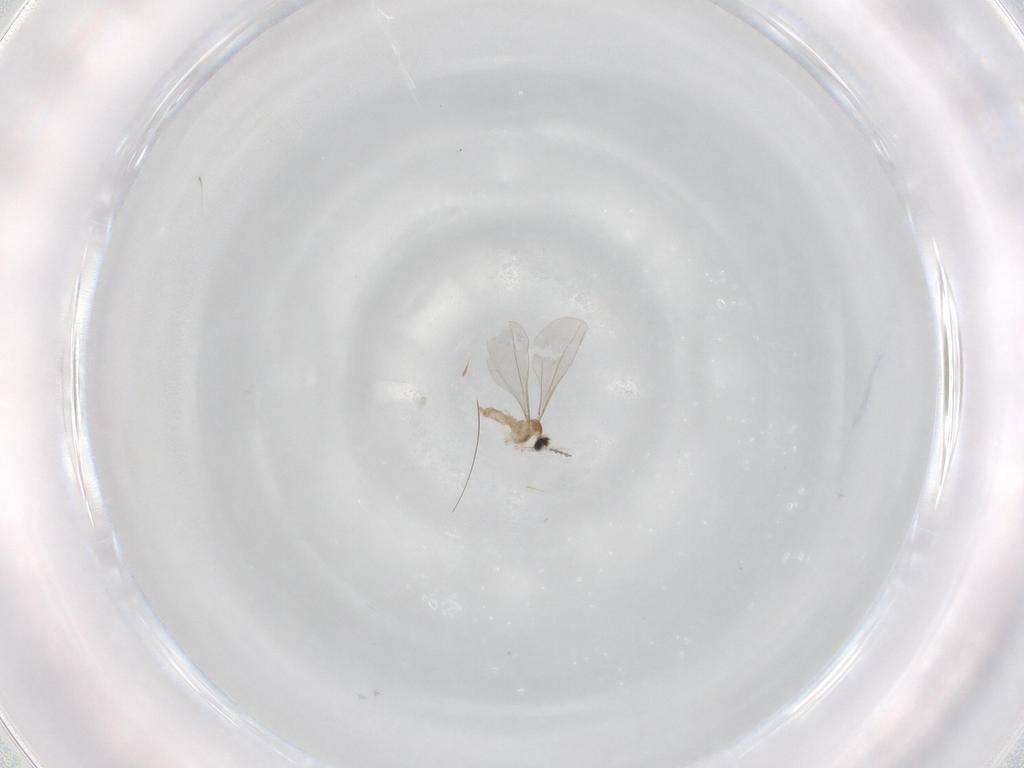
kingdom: Animalia
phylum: Arthropoda
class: Insecta
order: Diptera
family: Cecidomyiidae
